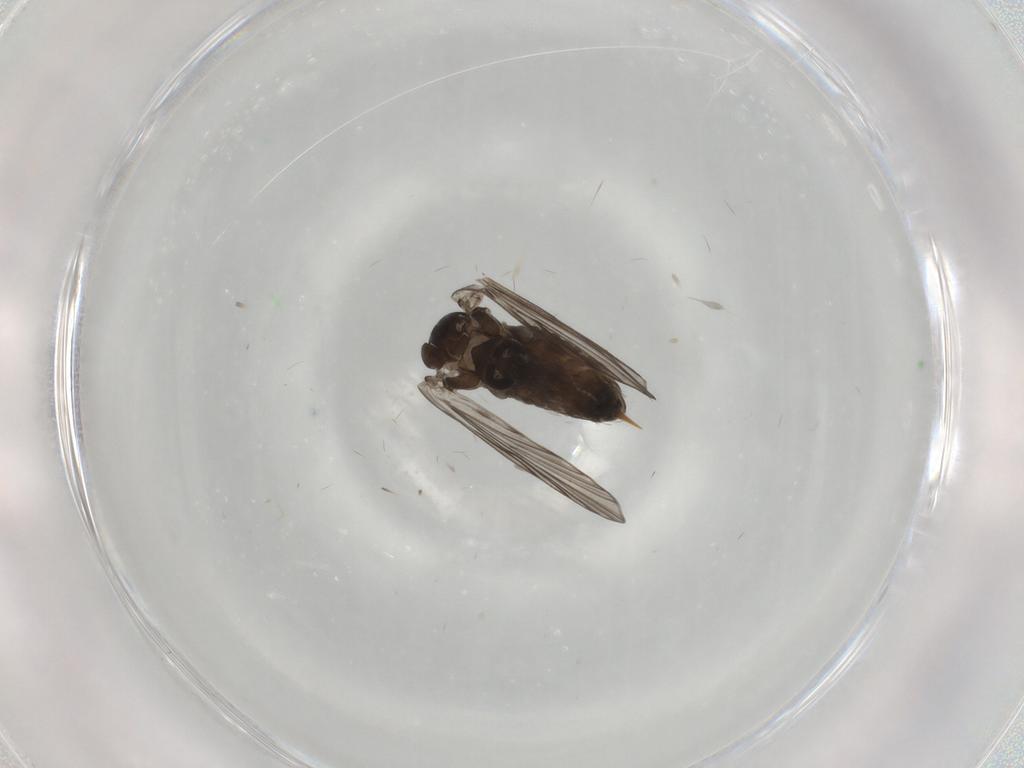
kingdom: Animalia
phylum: Arthropoda
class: Insecta
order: Diptera
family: Psychodidae
